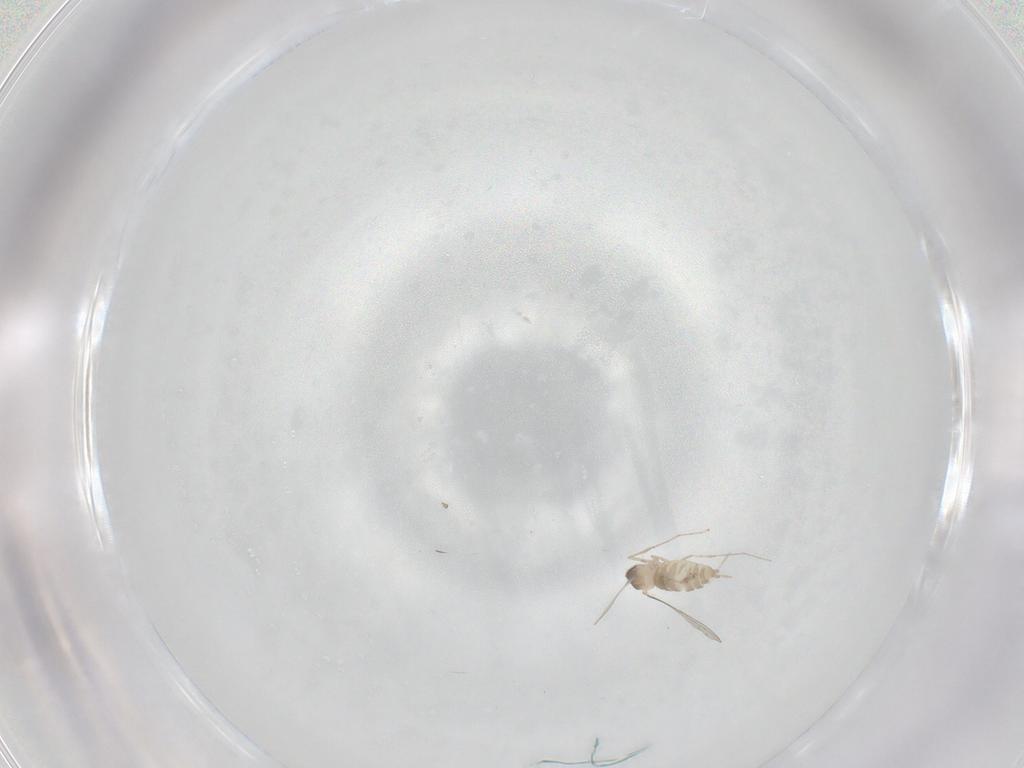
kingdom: Animalia
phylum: Arthropoda
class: Insecta
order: Diptera
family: Cecidomyiidae
